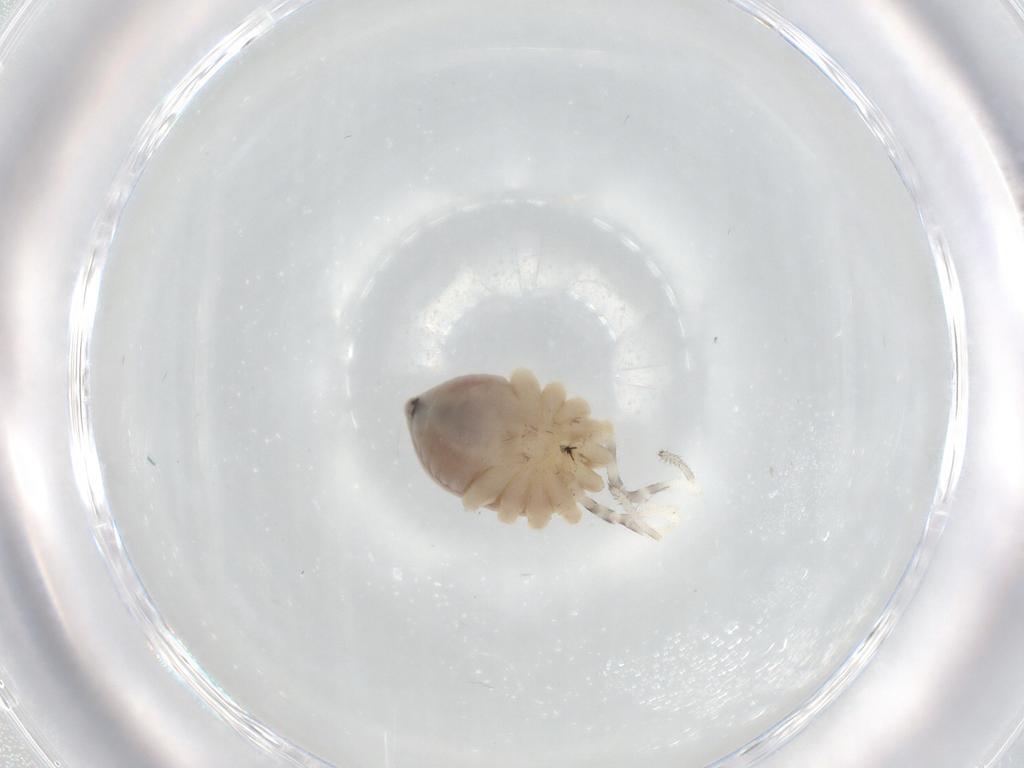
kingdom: Animalia
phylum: Arthropoda
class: Arachnida
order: Opiliones
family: Sclerosomatidae
